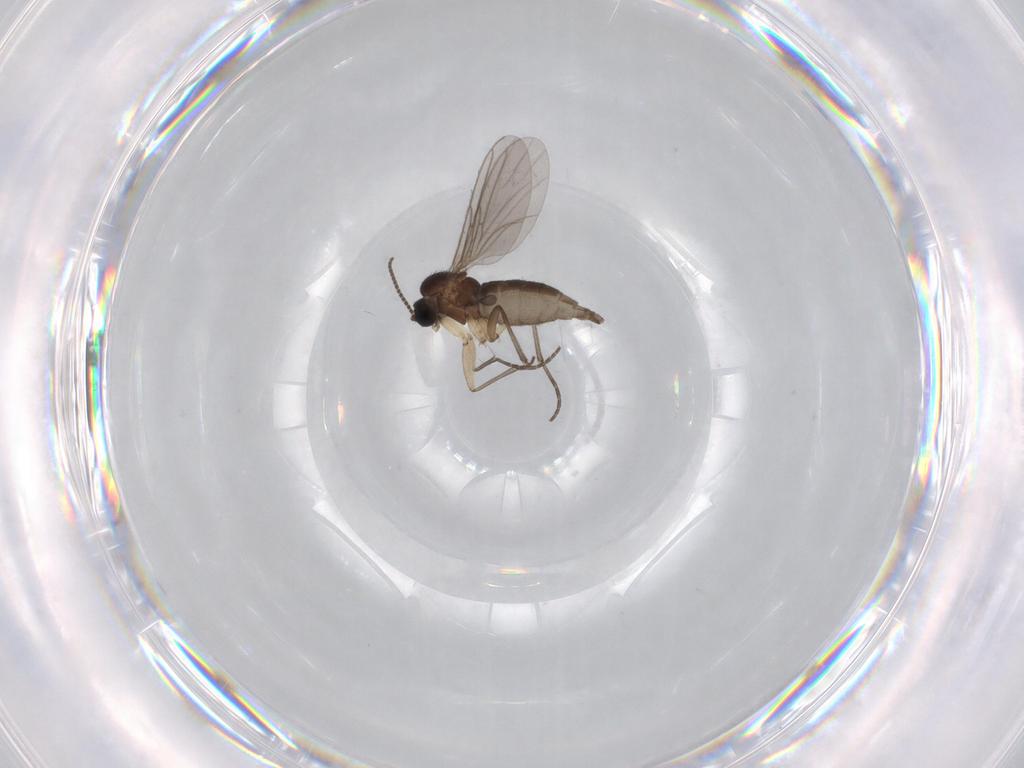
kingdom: Animalia
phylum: Arthropoda
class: Insecta
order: Diptera
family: Sciaridae
